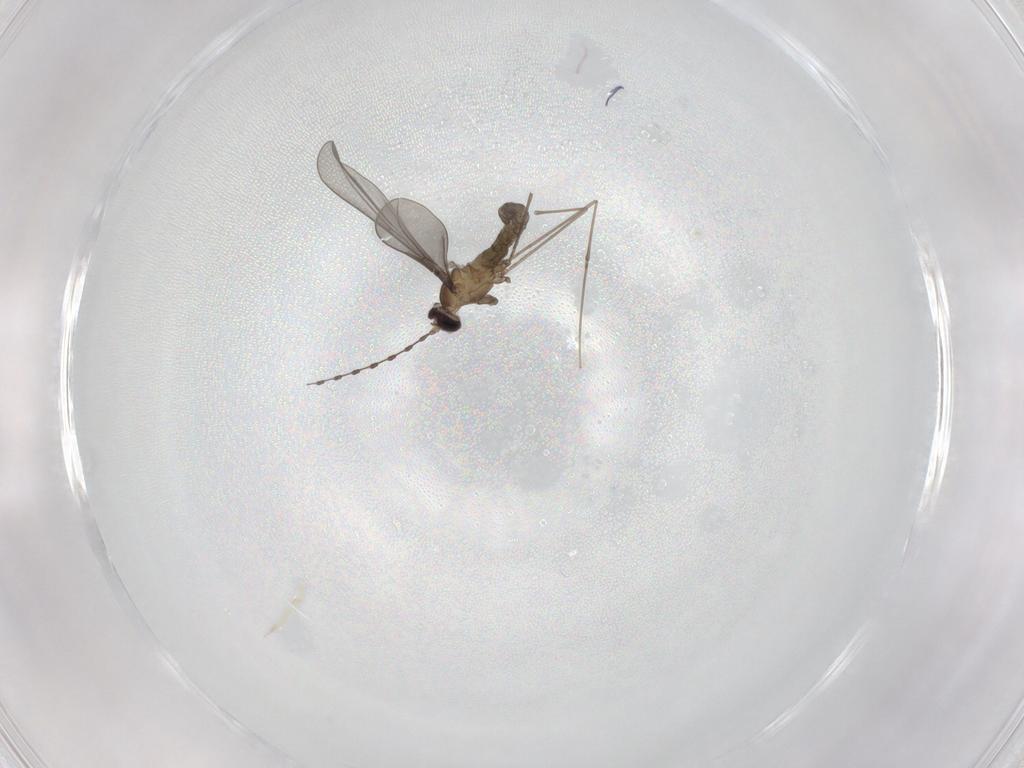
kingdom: Animalia
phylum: Arthropoda
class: Insecta
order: Diptera
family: Cecidomyiidae
